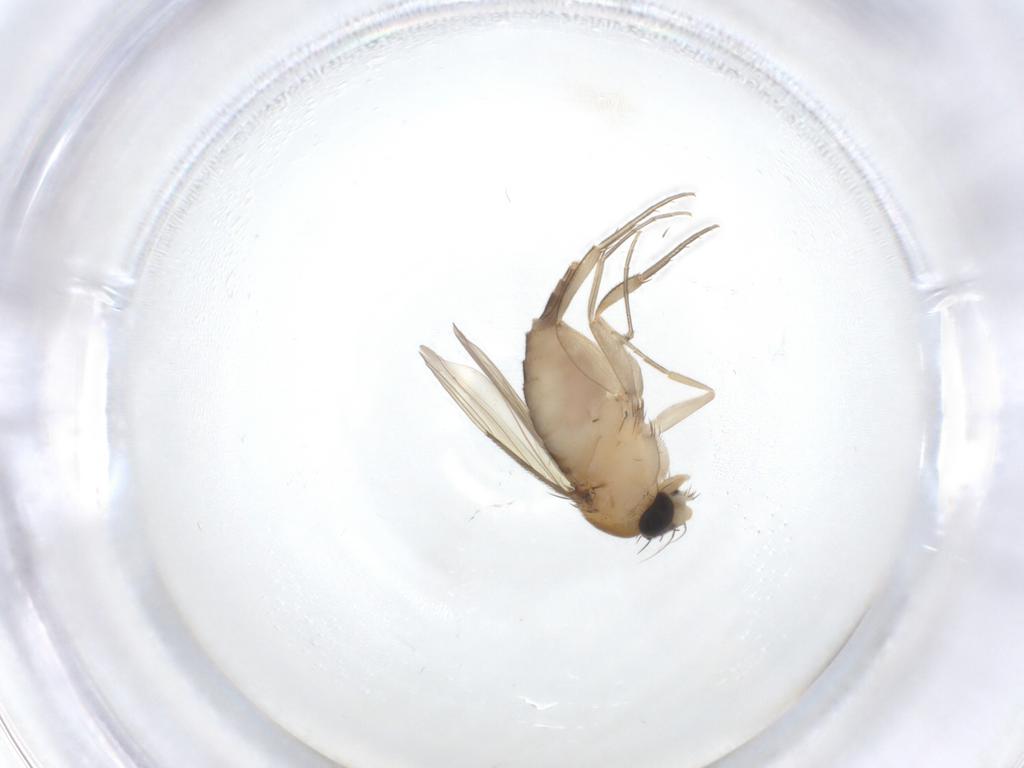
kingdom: Animalia
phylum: Arthropoda
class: Insecta
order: Diptera
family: Phoridae
